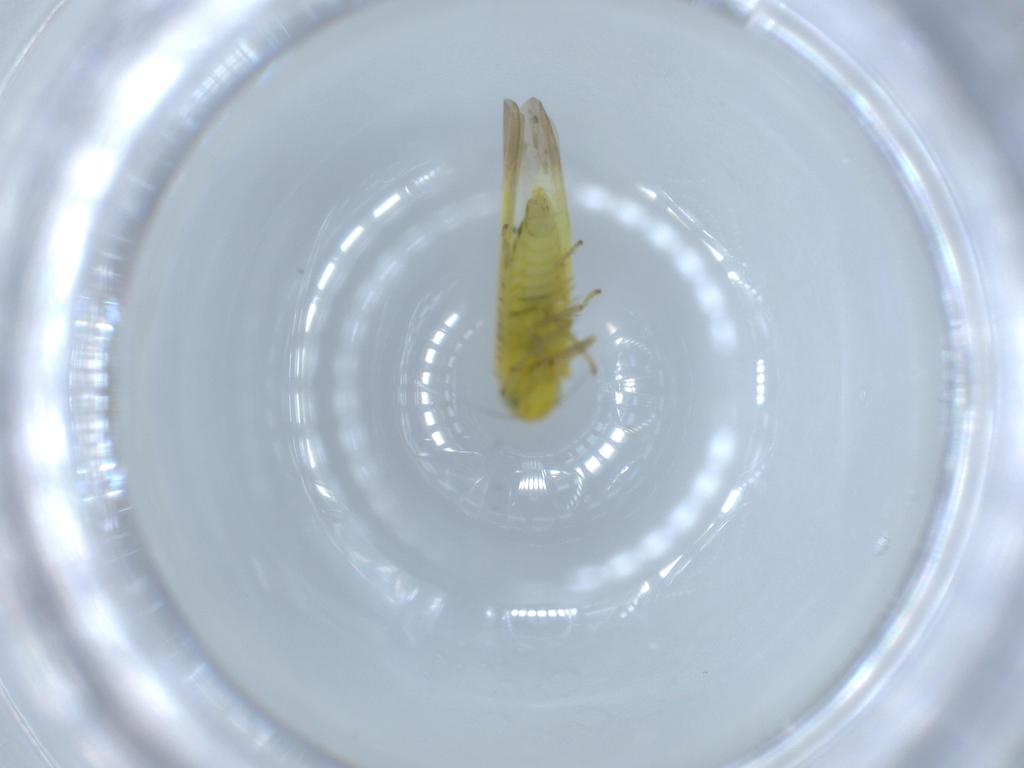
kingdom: Animalia
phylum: Arthropoda
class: Insecta
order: Hemiptera
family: Cicadellidae
